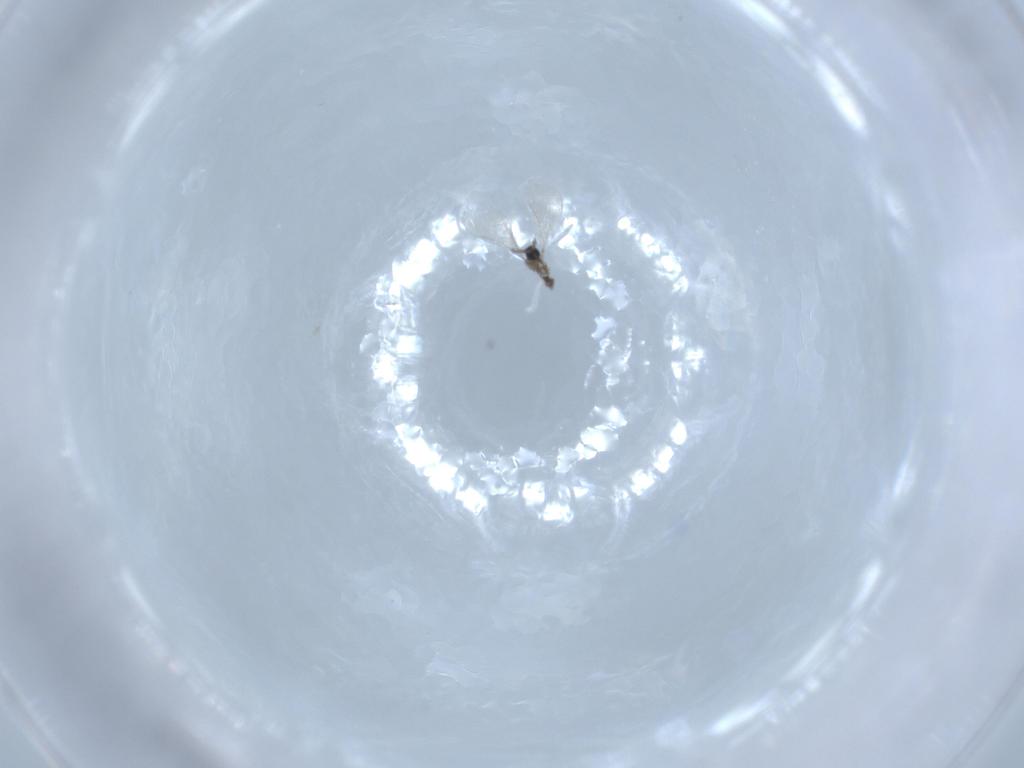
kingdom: Animalia
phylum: Arthropoda
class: Insecta
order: Diptera
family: Cecidomyiidae
